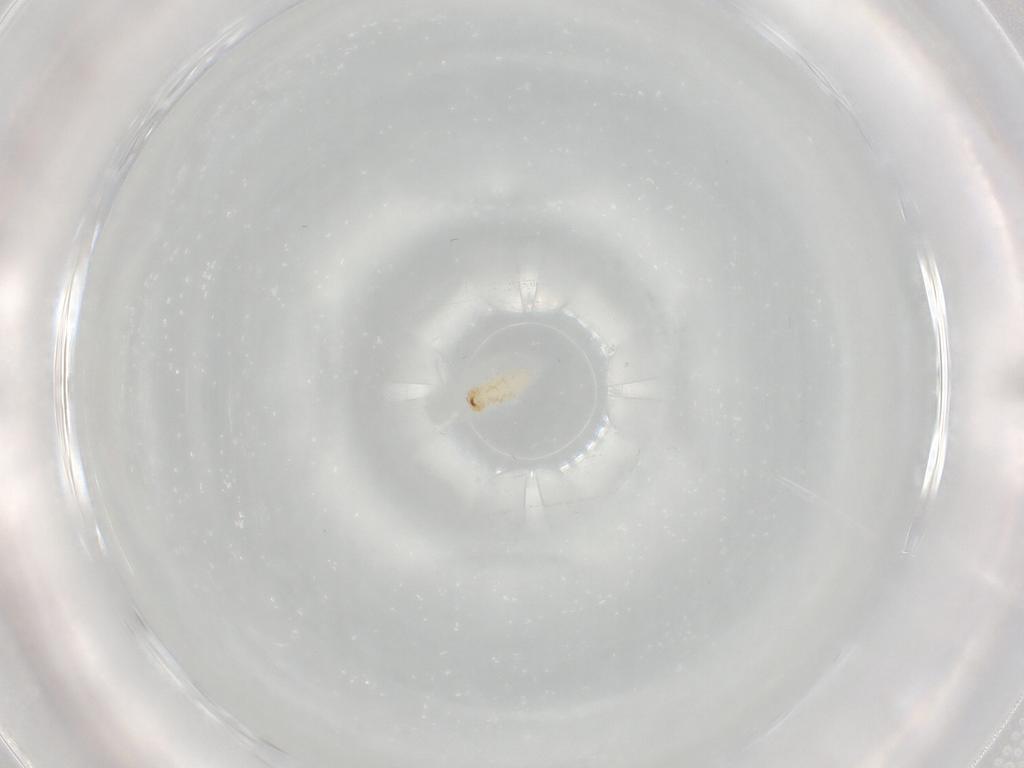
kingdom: Animalia
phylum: Arthropoda
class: Insecta
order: Coleoptera
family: Chrysomelidae
